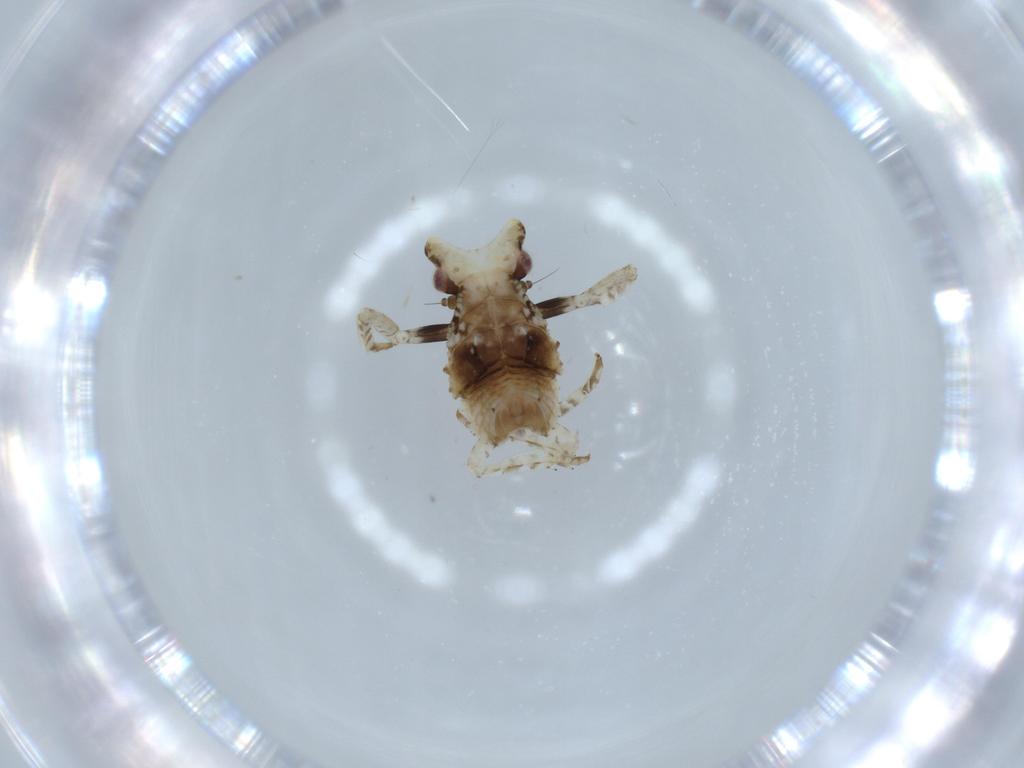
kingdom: Animalia
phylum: Arthropoda
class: Insecta
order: Hemiptera
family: Fulgoridae
